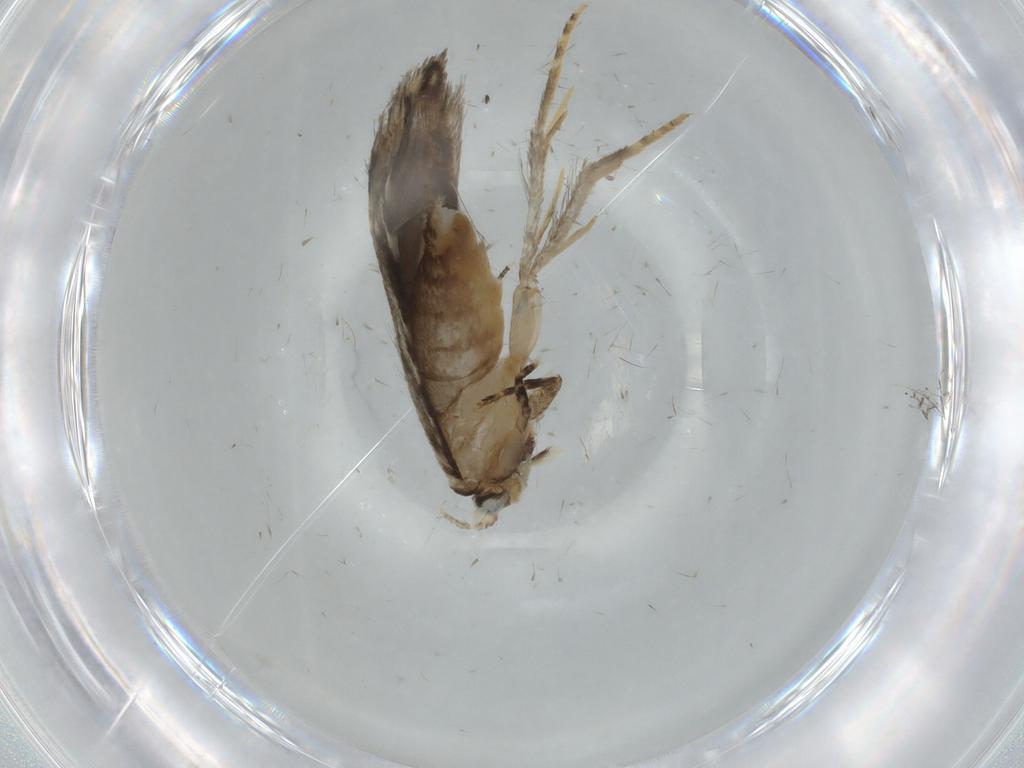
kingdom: Animalia
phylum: Arthropoda
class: Insecta
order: Lepidoptera
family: Tineidae
